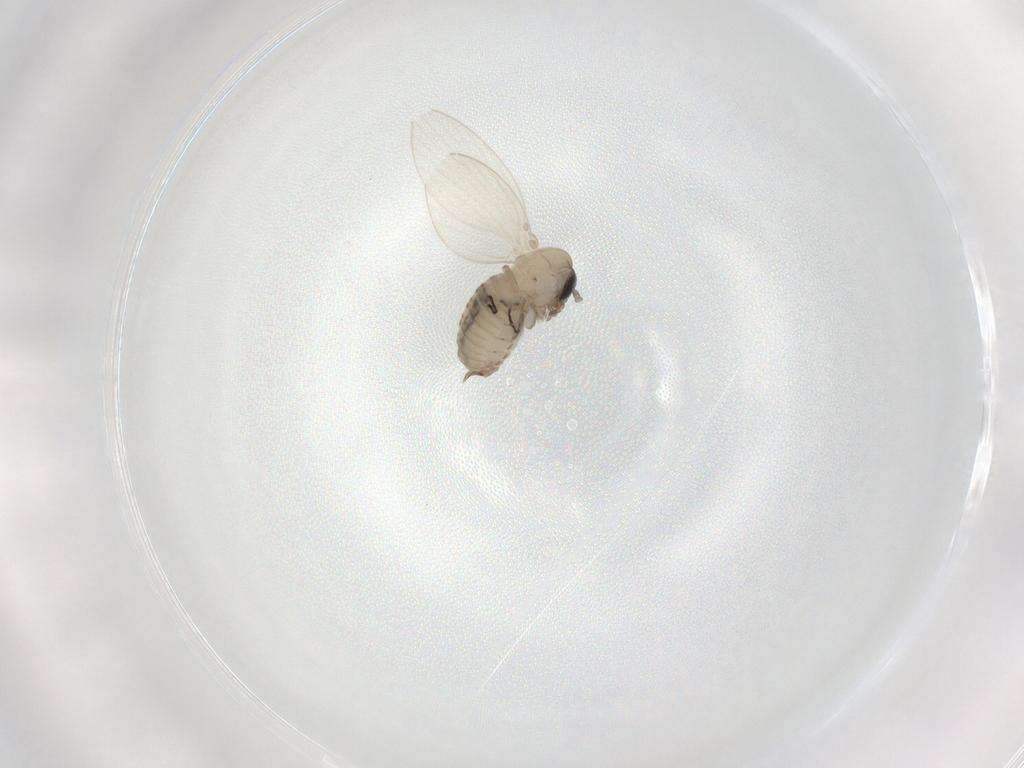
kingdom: Animalia
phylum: Arthropoda
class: Insecta
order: Diptera
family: Psychodidae
